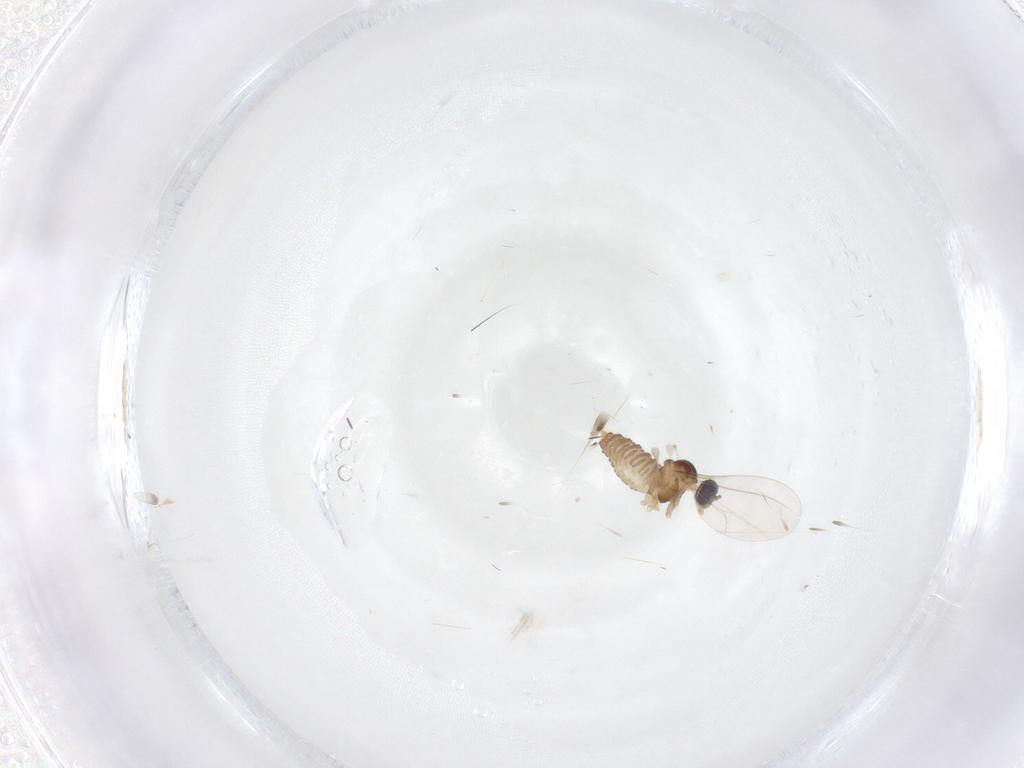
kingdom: Animalia
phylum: Arthropoda
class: Insecta
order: Diptera
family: Cecidomyiidae
